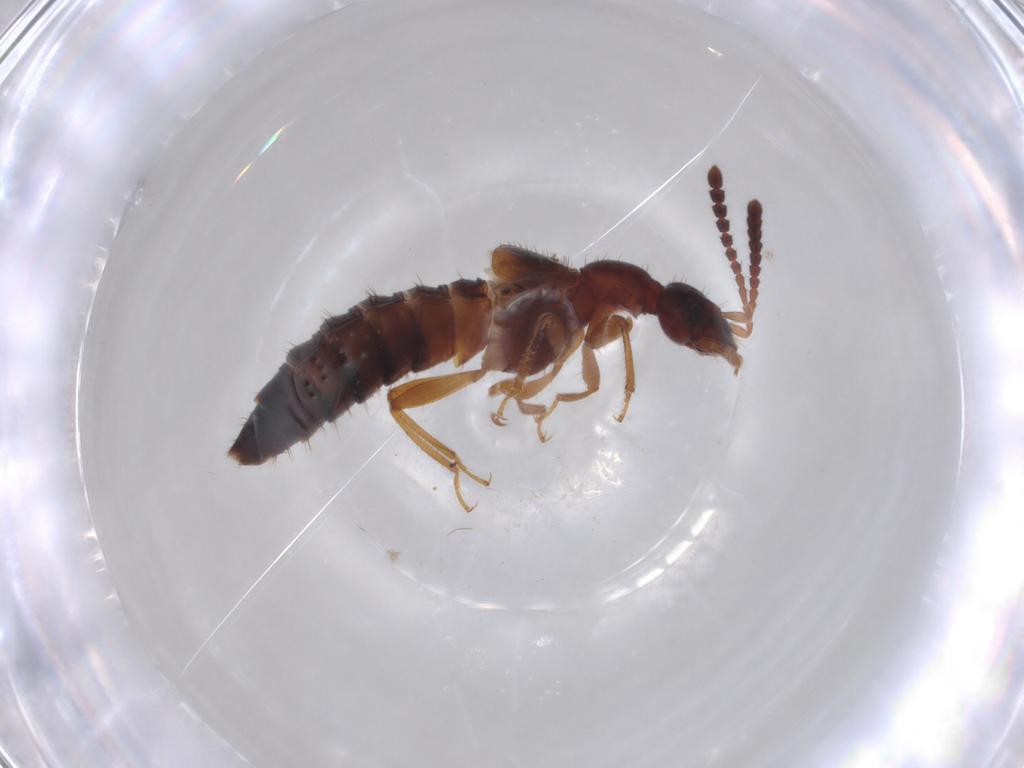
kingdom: Animalia
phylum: Arthropoda
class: Insecta
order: Coleoptera
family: Staphylinidae
